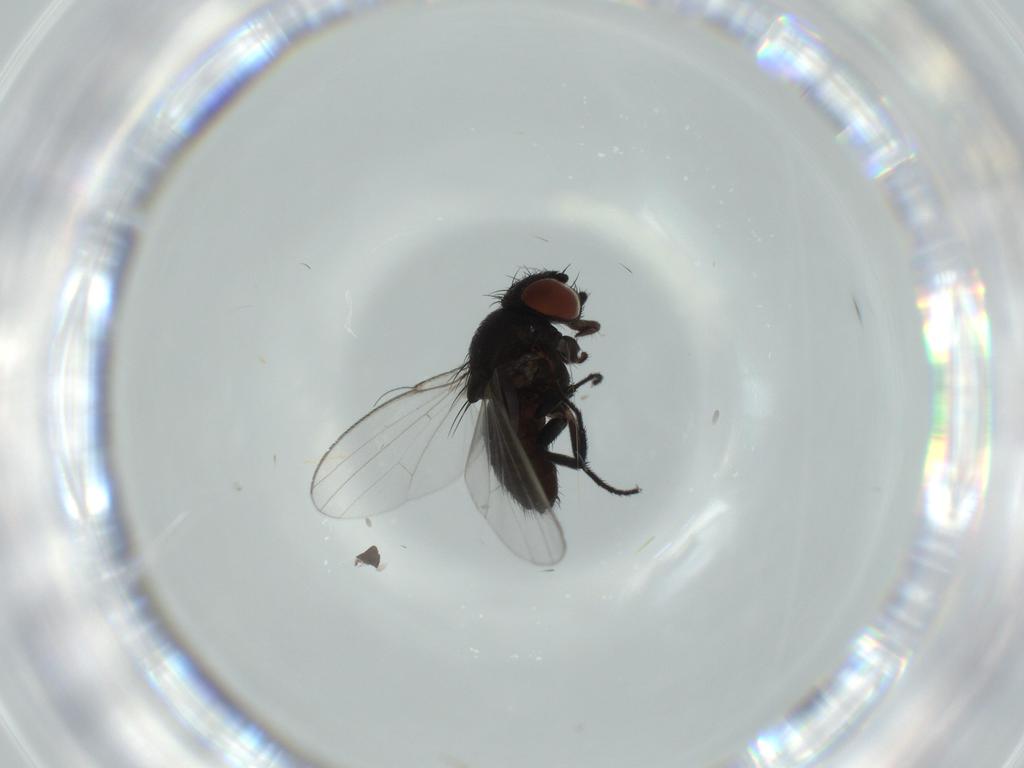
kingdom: Animalia
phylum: Arthropoda
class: Insecta
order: Diptera
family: Milichiidae
